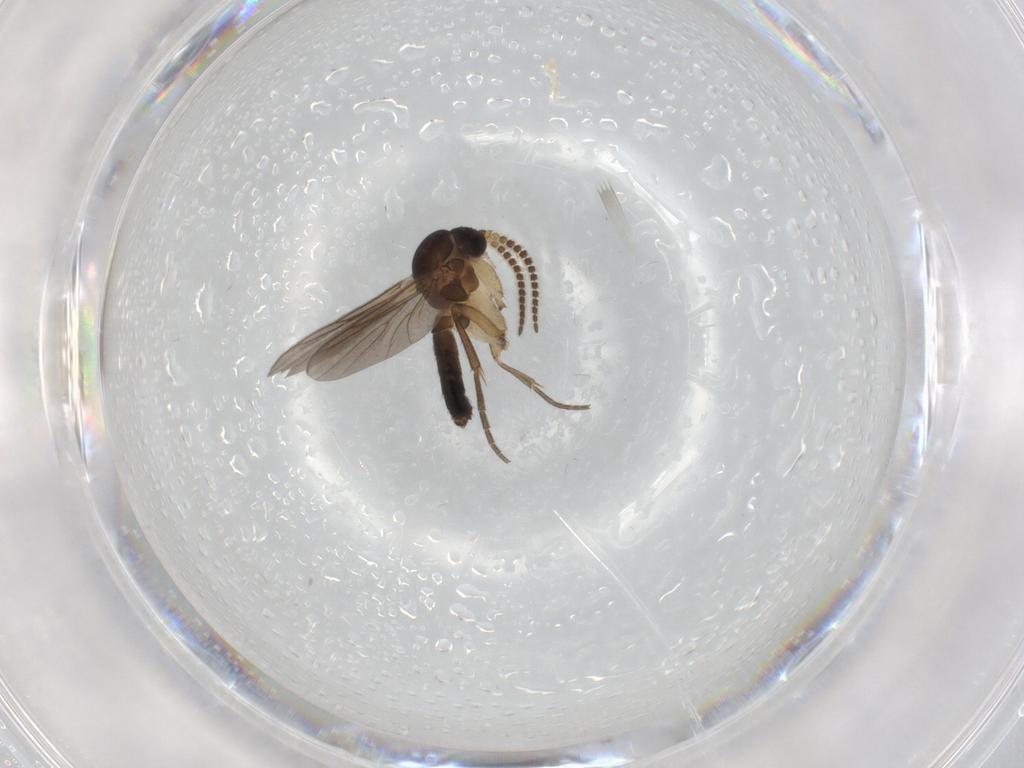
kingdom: Animalia
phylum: Arthropoda
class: Insecta
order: Diptera
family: Mycetophilidae
